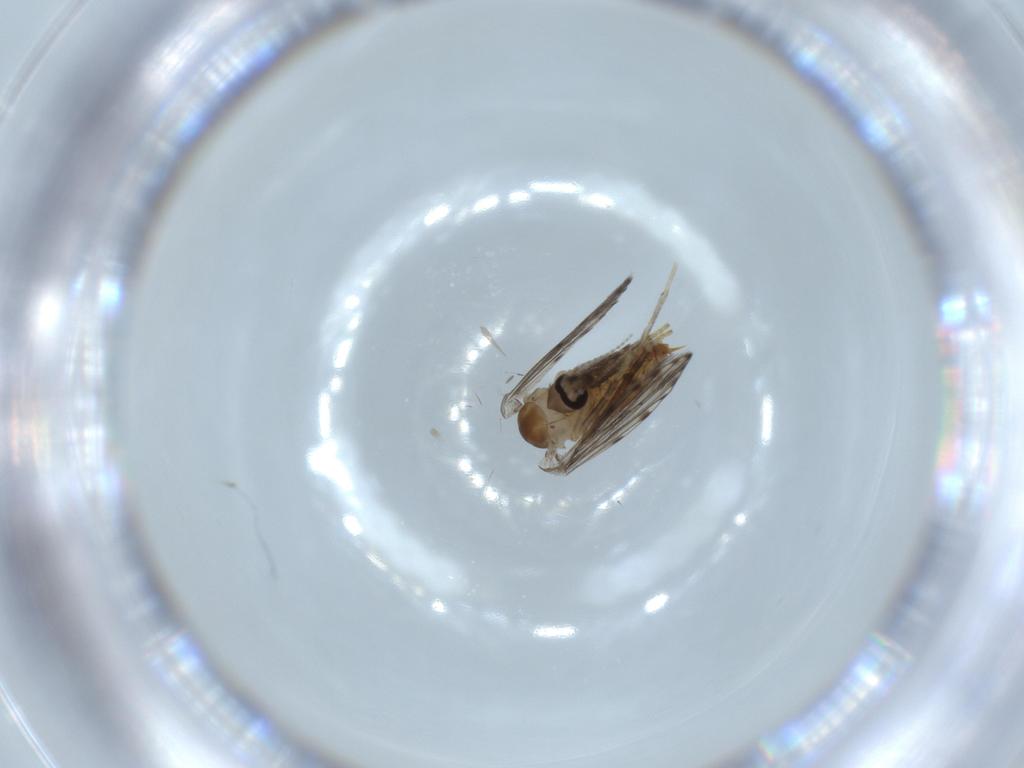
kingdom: Animalia
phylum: Arthropoda
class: Insecta
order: Diptera
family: Psychodidae
